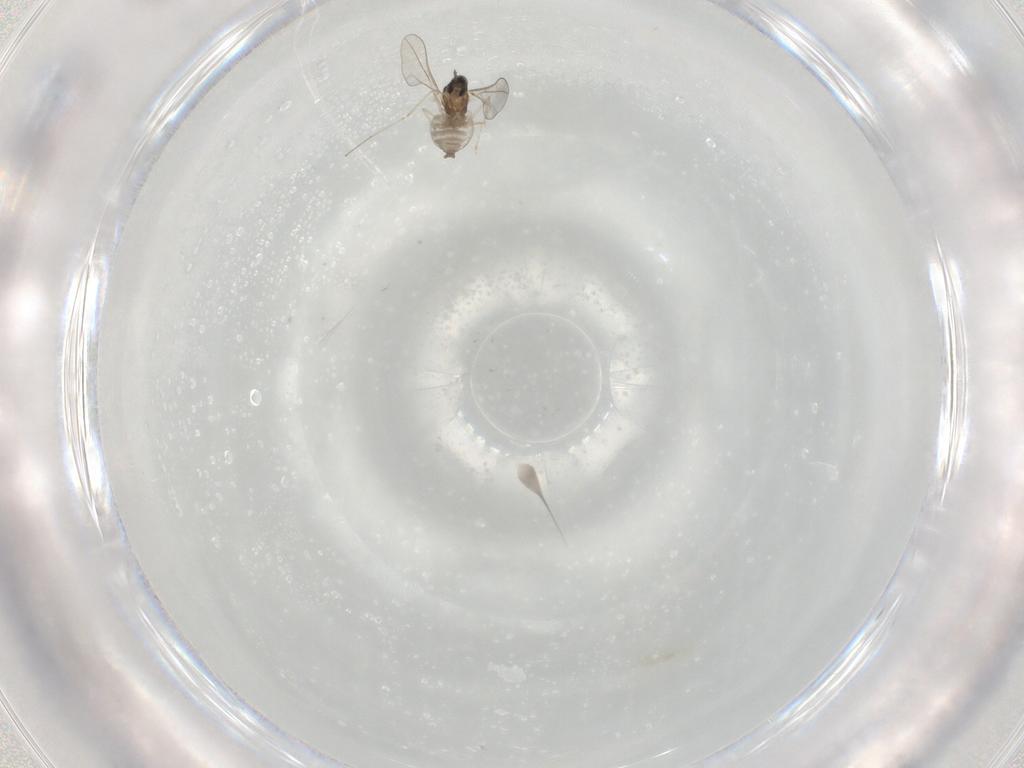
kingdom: Animalia
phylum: Arthropoda
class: Insecta
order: Diptera
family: Cecidomyiidae
